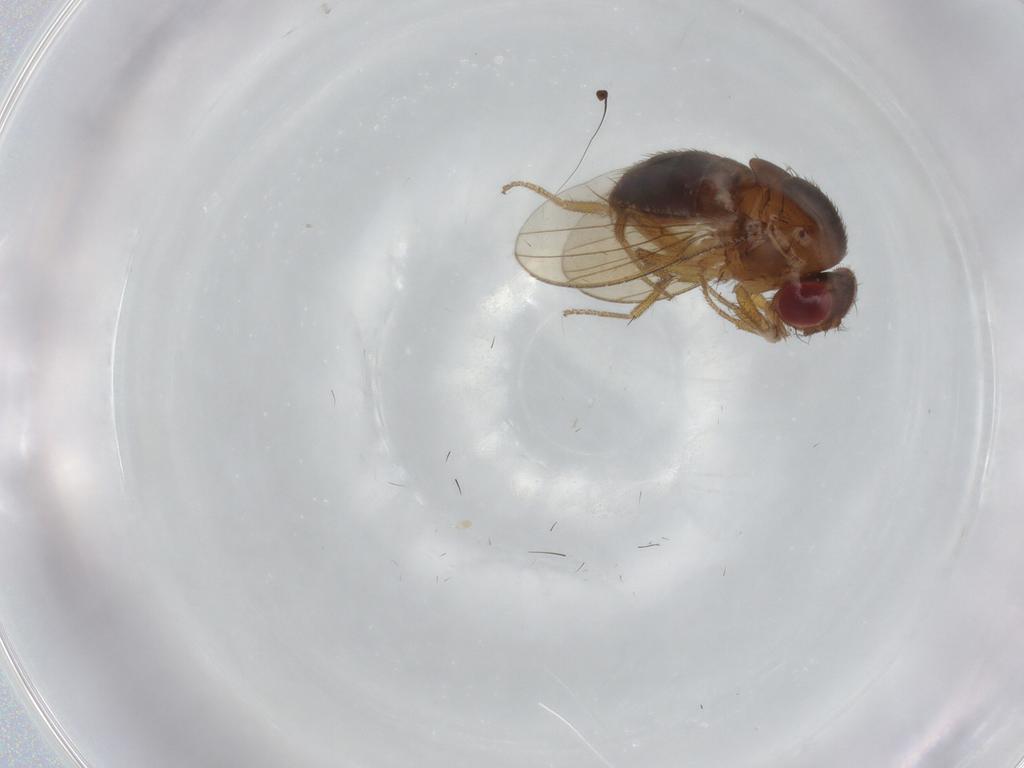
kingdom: Animalia
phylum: Arthropoda
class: Insecta
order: Diptera
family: Drosophilidae
